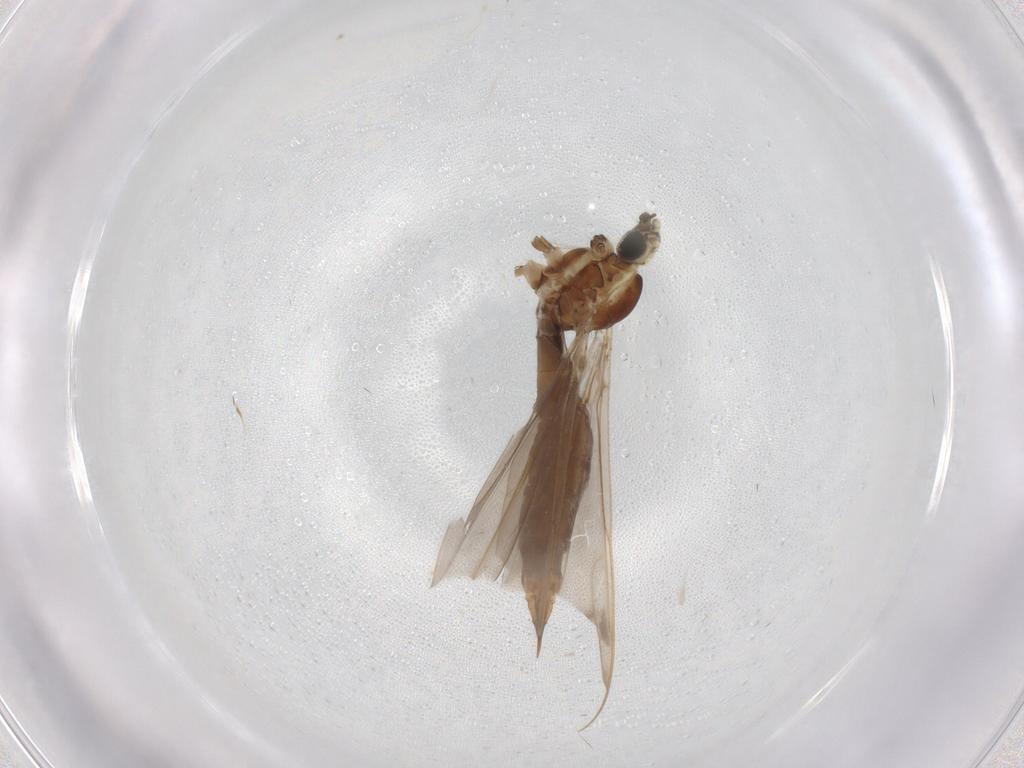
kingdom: Animalia
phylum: Arthropoda
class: Insecta
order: Diptera
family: Limoniidae
